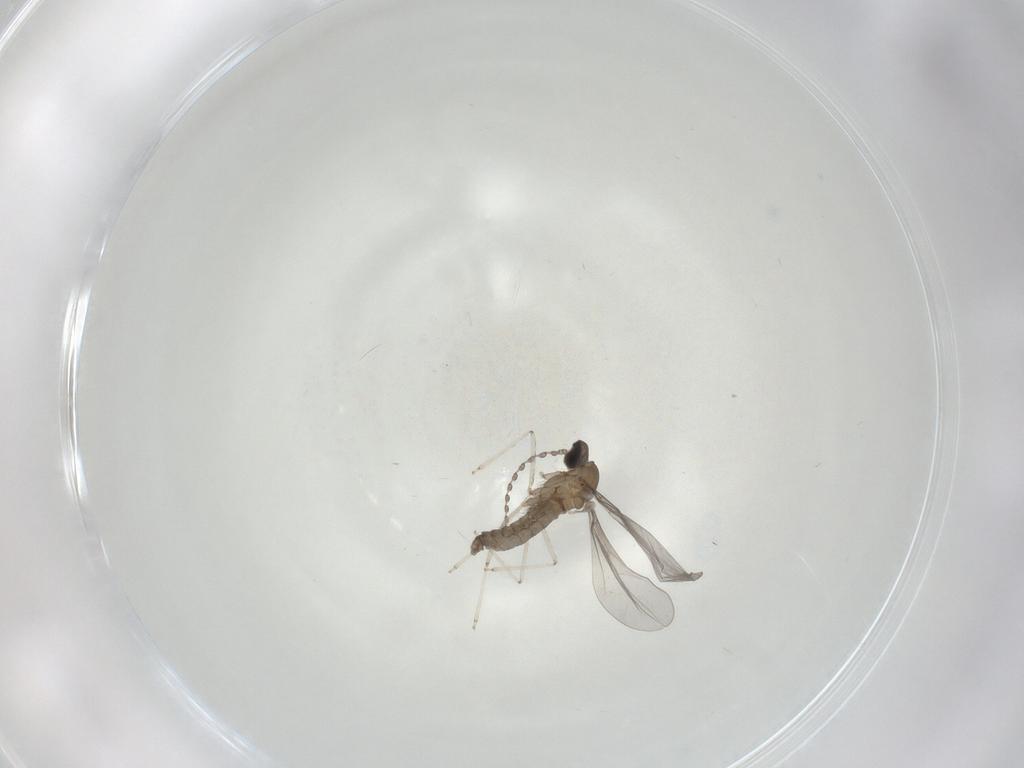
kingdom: Animalia
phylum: Arthropoda
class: Insecta
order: Diptera
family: Cecidomyiidae
